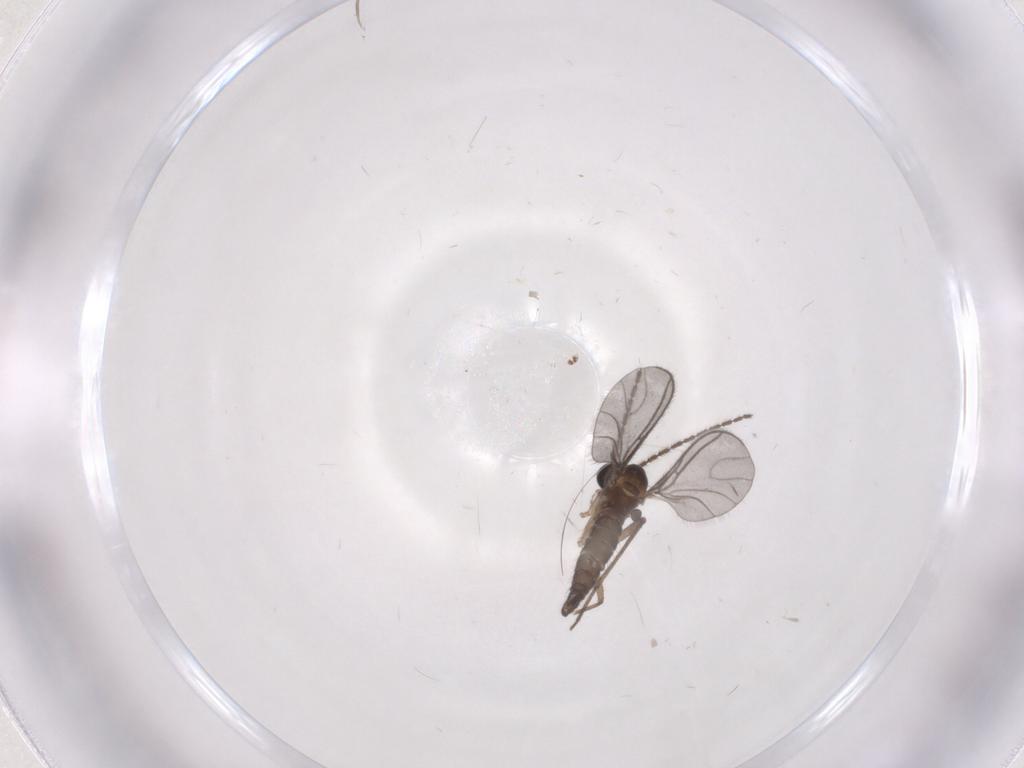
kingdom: Animalia
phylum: Arthropoda
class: Insecta
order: Diptera
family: Sciaridae
